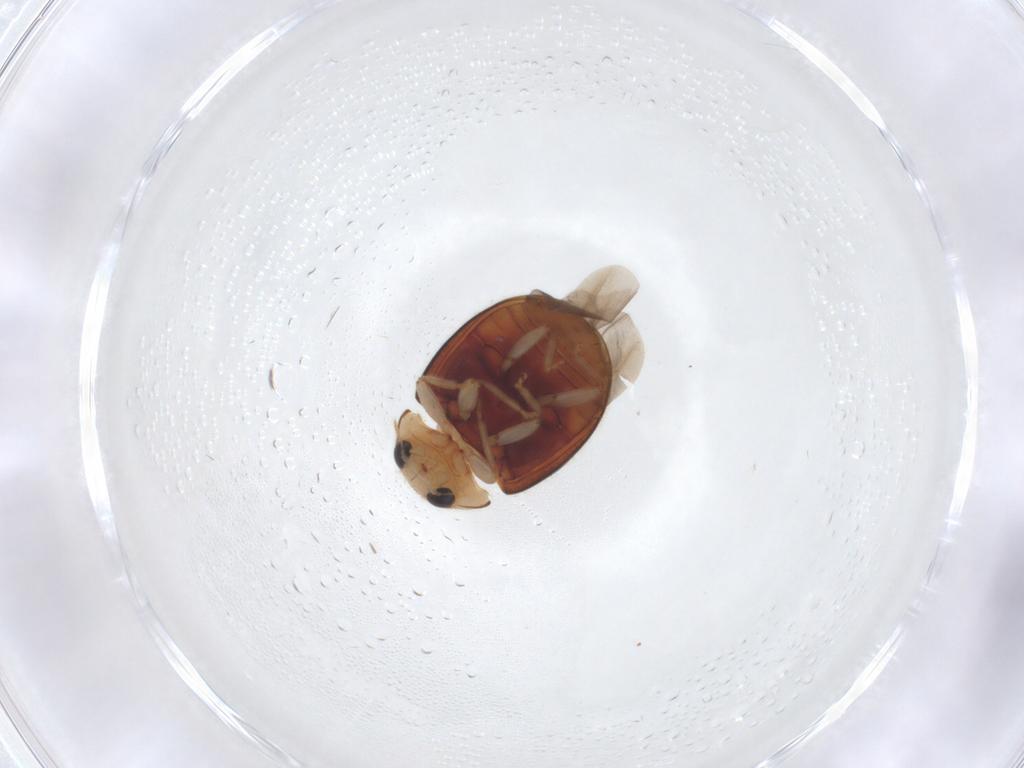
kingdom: Animalia
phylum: Arthropoda
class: Insecta
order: Coleoptera
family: Coccinellidae
